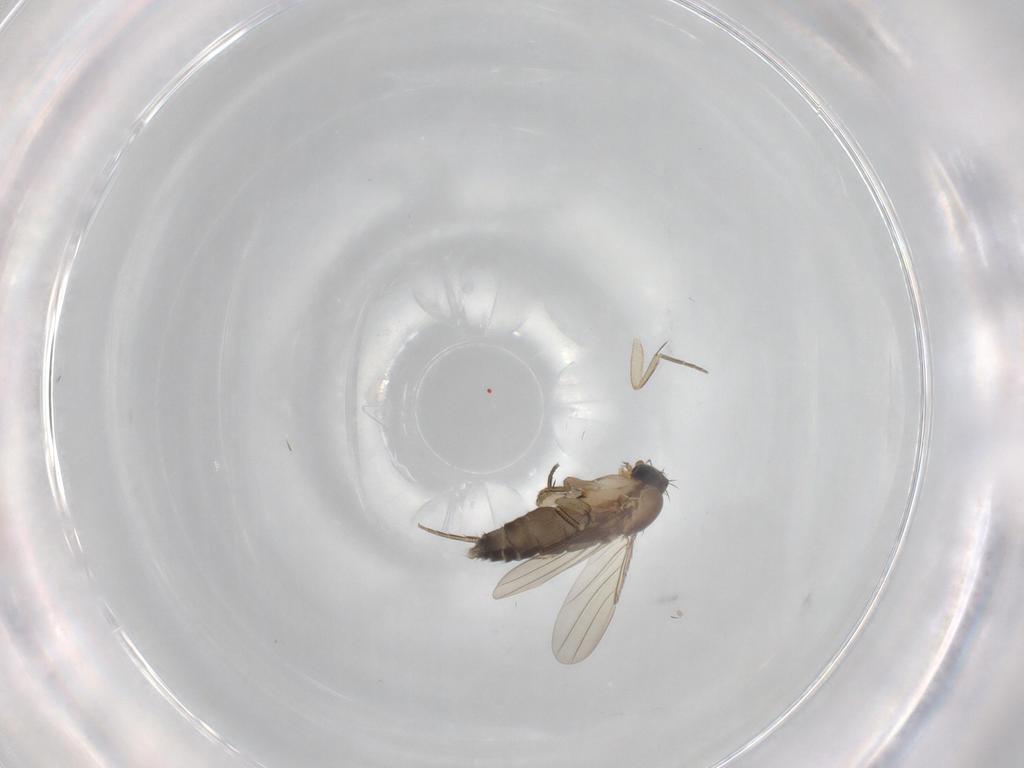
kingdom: Animalia
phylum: Arthropoda
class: Insecta
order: Diptera
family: Phoridae
